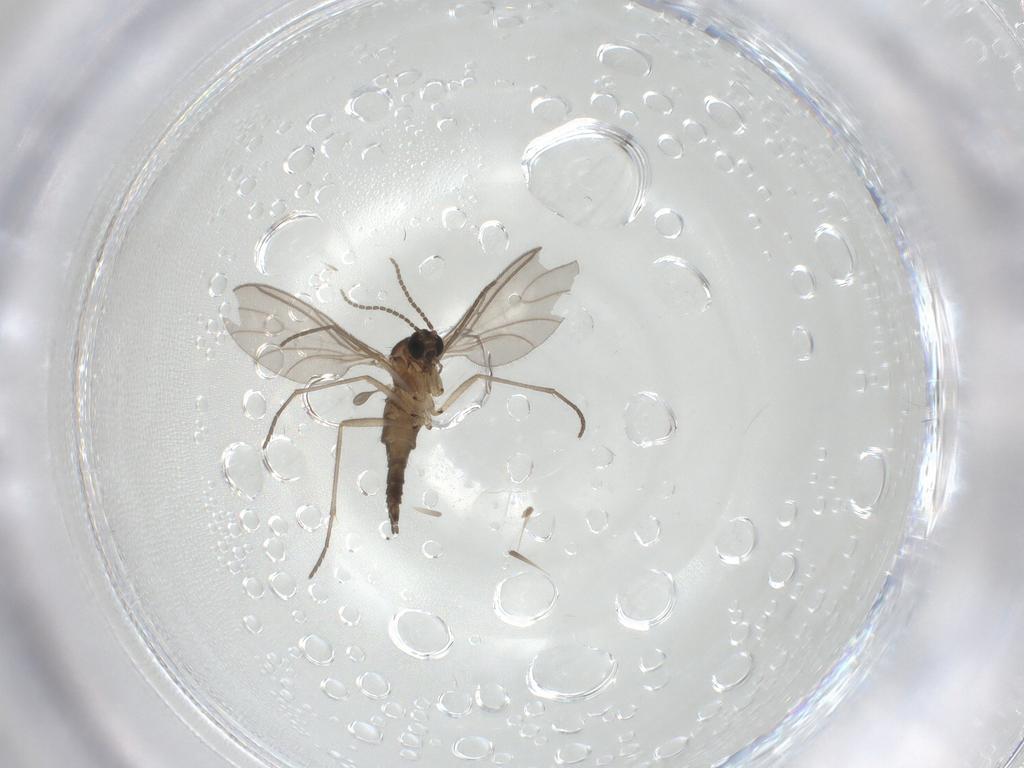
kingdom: Animalia
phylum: Arthropoda
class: Insecta
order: Diptera
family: Sciaridae
